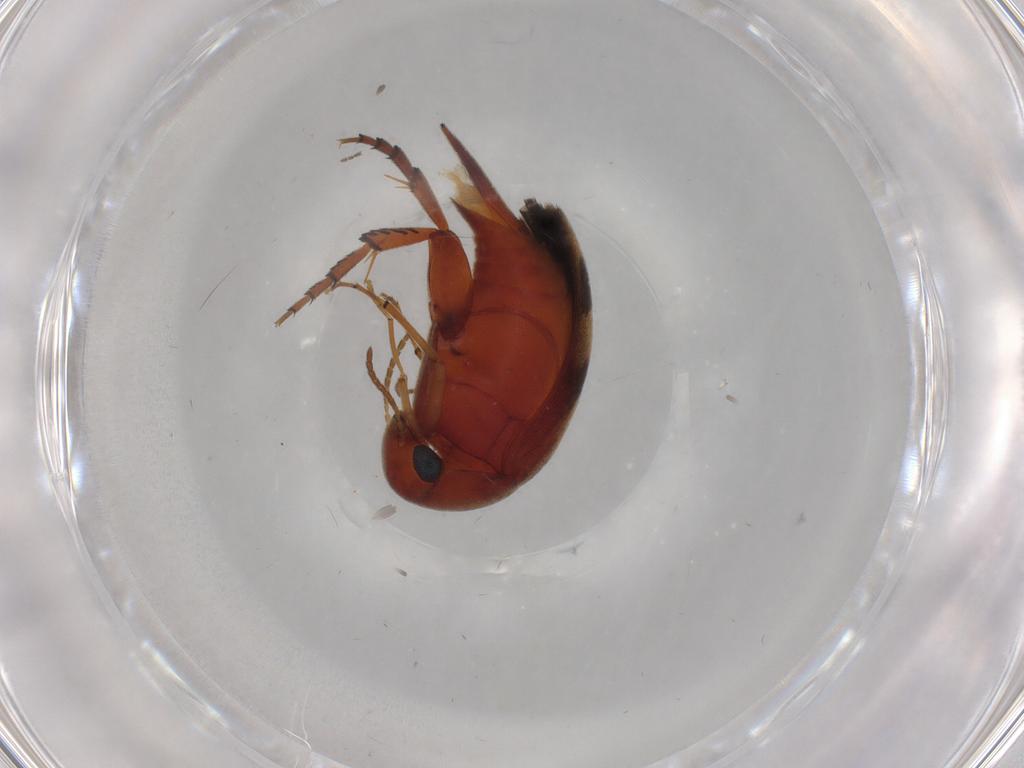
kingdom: Animalia
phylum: Arthropoda
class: Insecta
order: Coleoptera
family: Mordellidae
